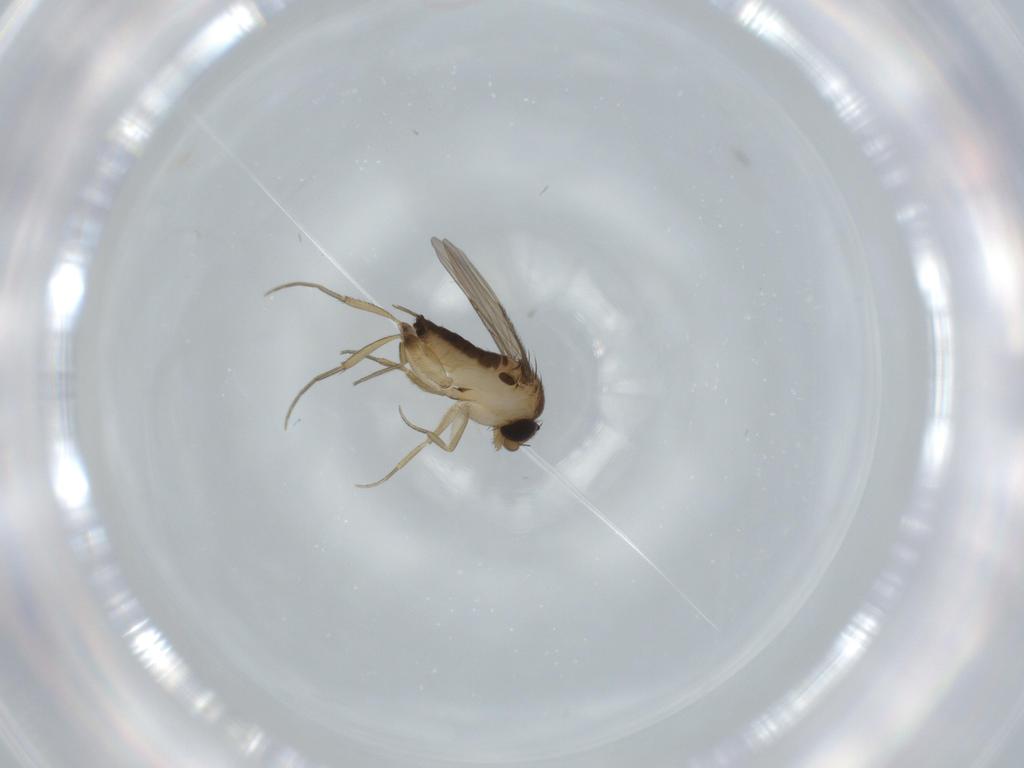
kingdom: Animalia
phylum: Arthropoda
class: Insecta
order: Diptera
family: Phoridae
